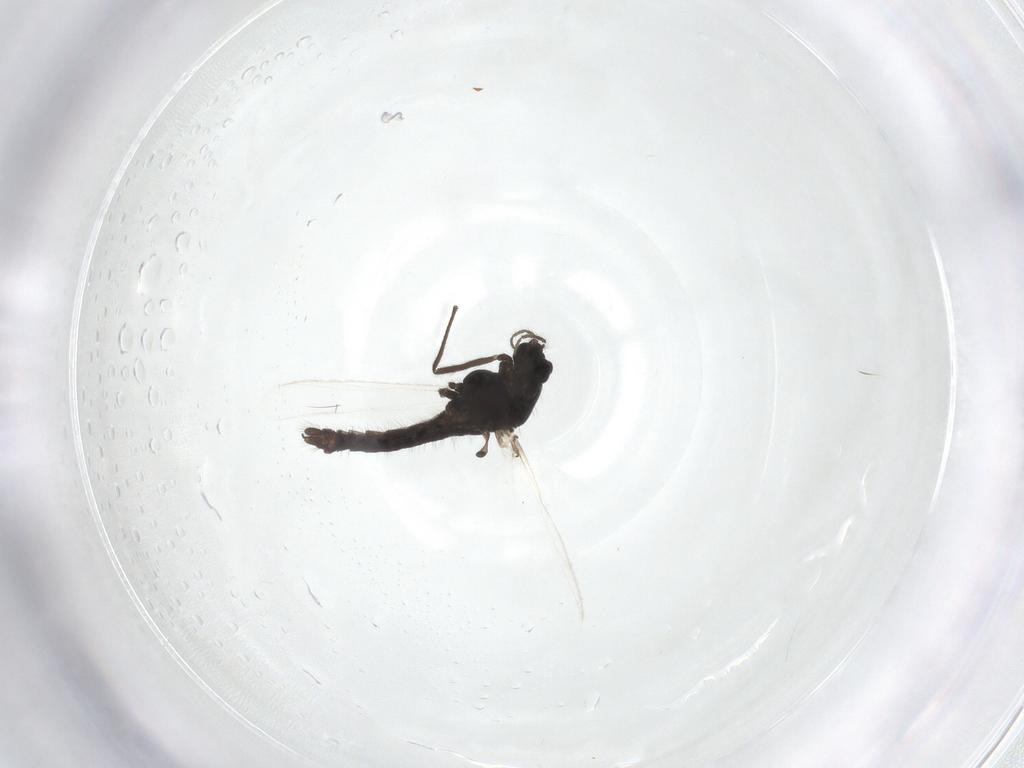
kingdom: Animalia
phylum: Arthropoda
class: Insecta
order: Diptera
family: Chironomidae
